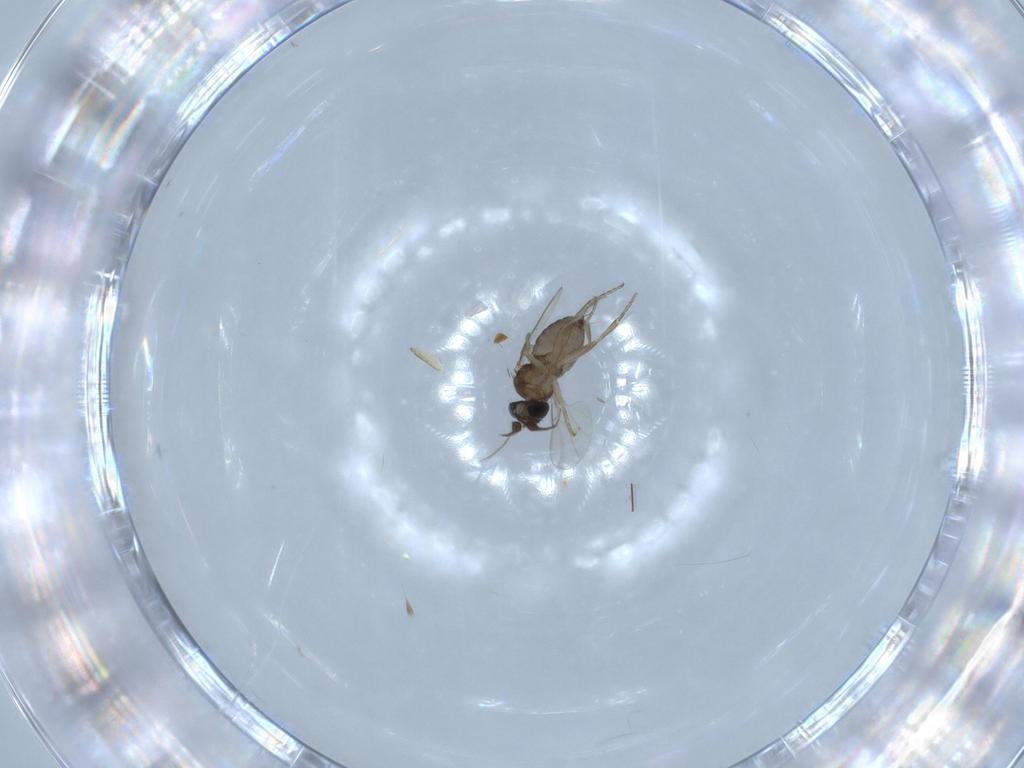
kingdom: Animalia
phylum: Arthropoda
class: Insecta
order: Diptera
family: Phoridae
